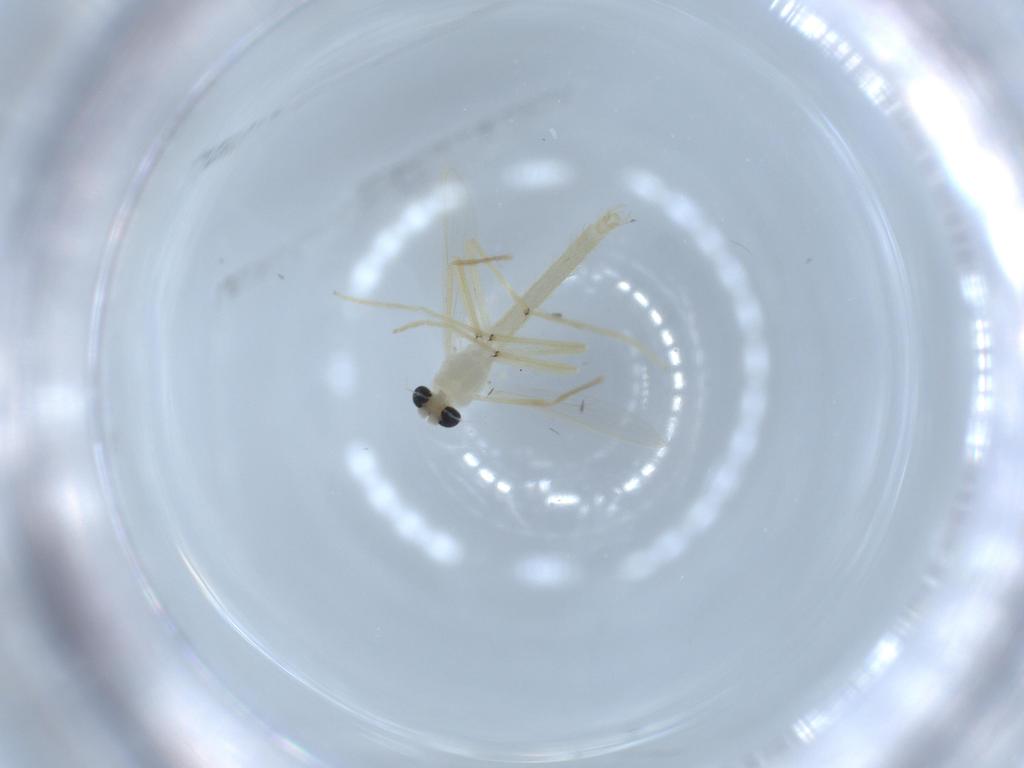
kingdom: Animalia
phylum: Arthropoda
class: Insecta
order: Diptera
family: Chironomidae
